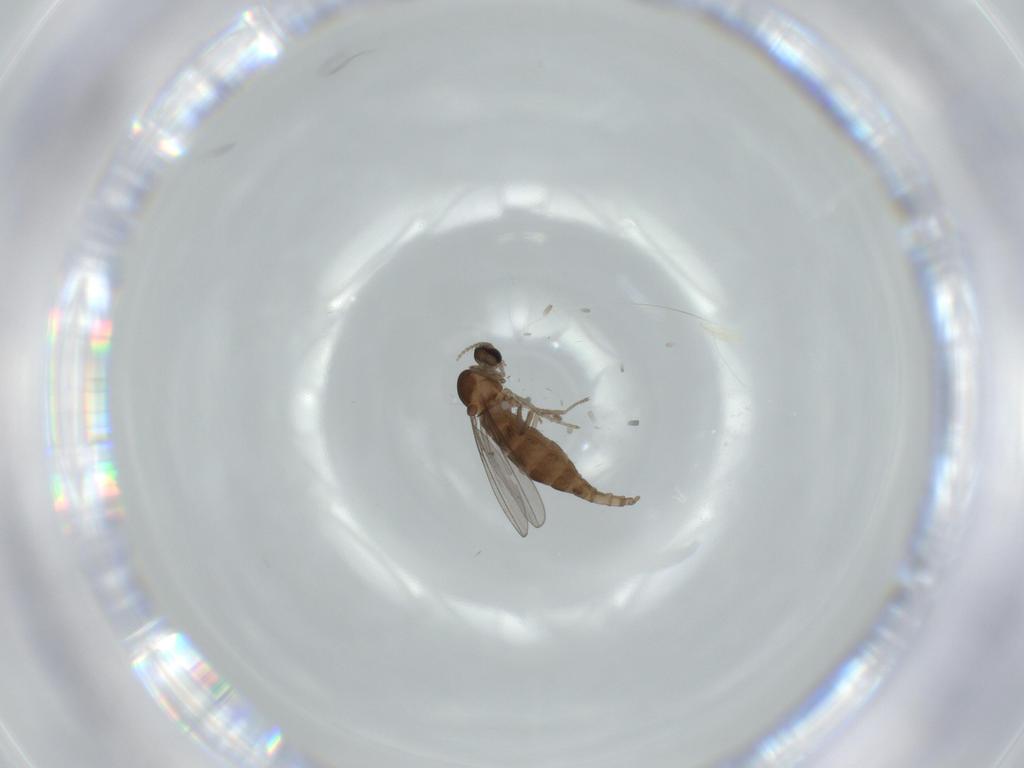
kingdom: Animalia
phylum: Arthropoda
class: Insecta
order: Diptera
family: Cecidomyiidae
